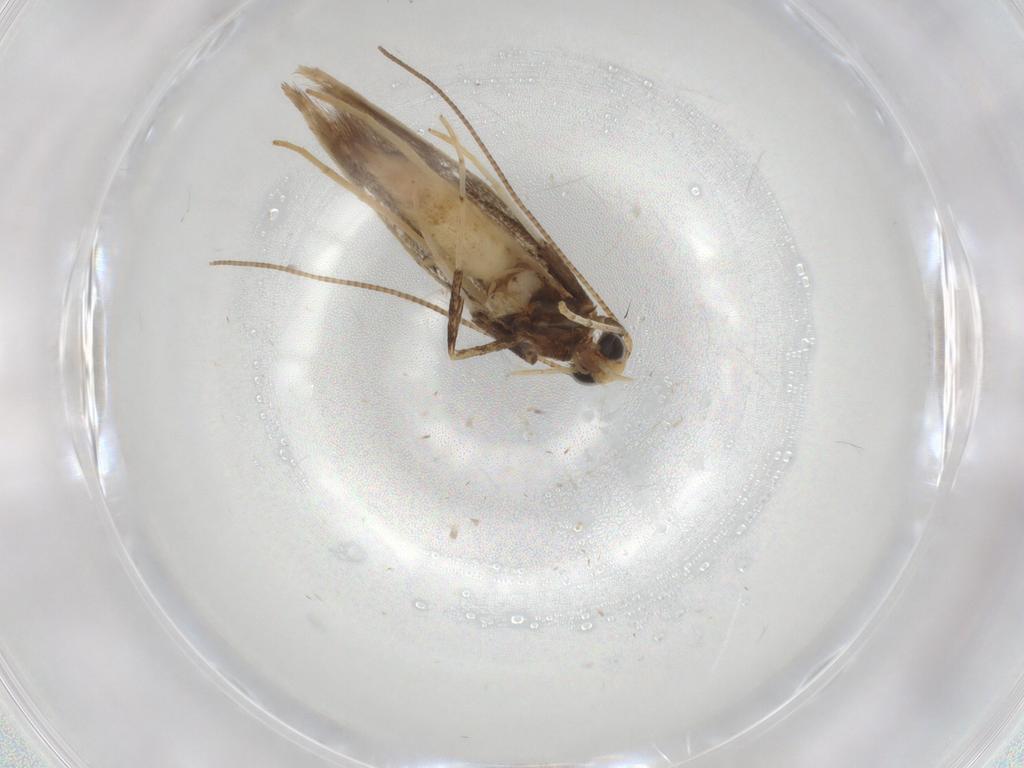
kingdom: Animalia
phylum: Arthropoda
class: Insecta
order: Lepidoptera
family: Gracillariidae
